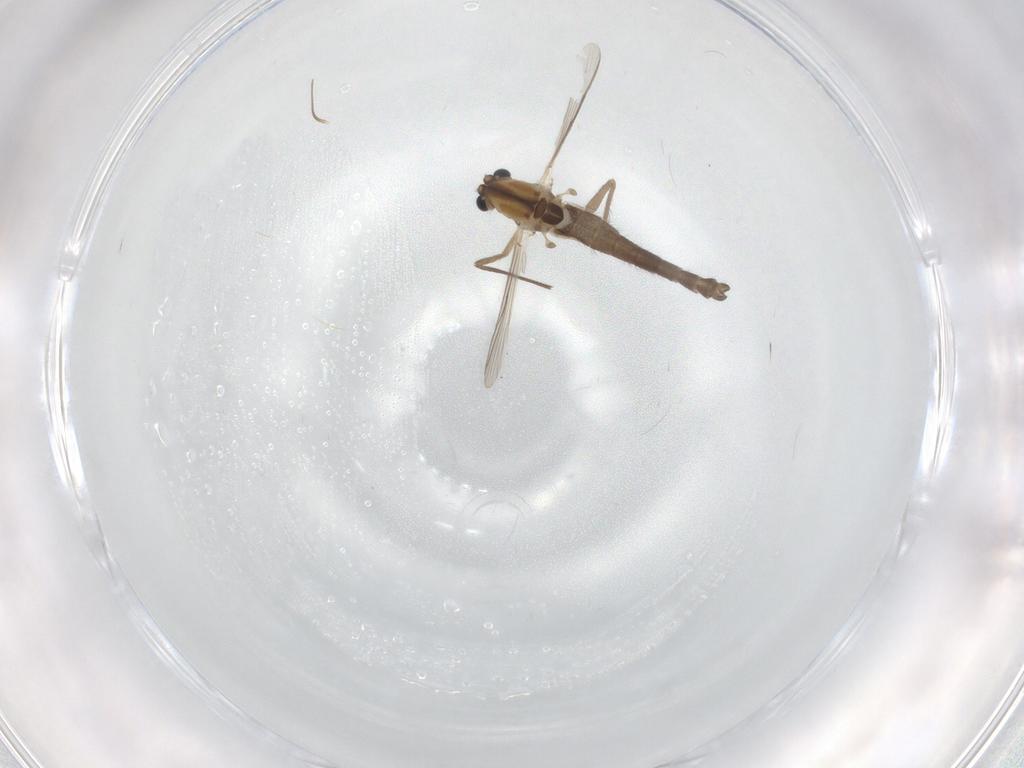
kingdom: Animalia
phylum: Arthropoda
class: Insecta
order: Diptera
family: Chironomidae
